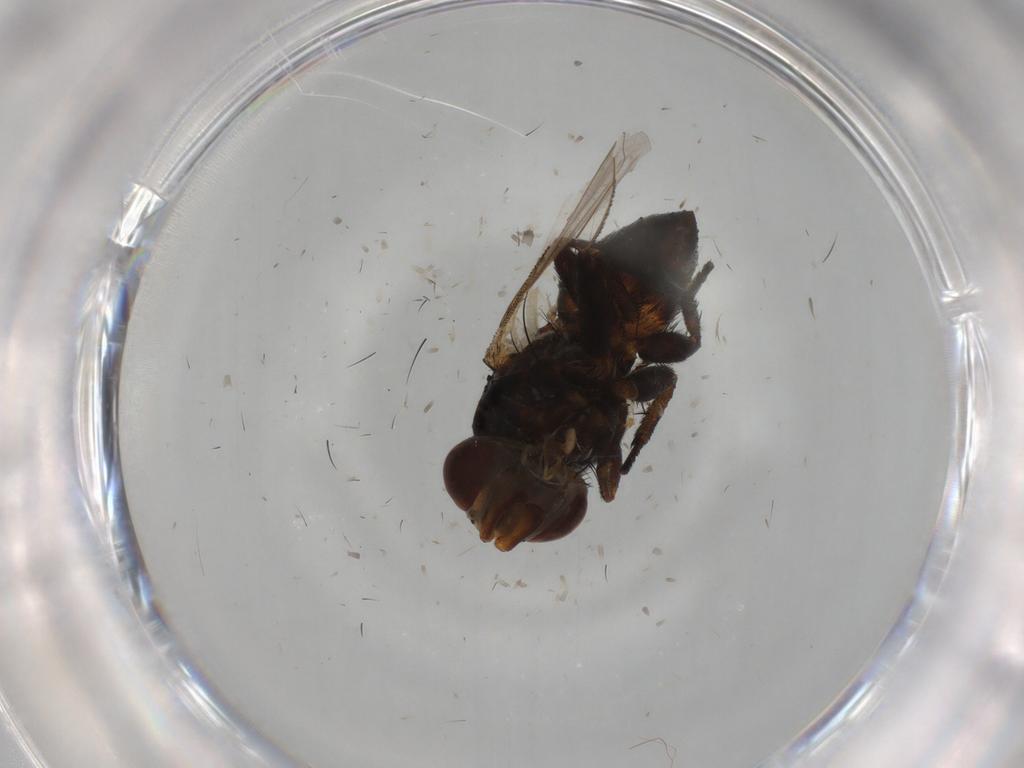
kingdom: Animalia
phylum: Arthropoda
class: Insecta
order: Diptera
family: Glossinidae
